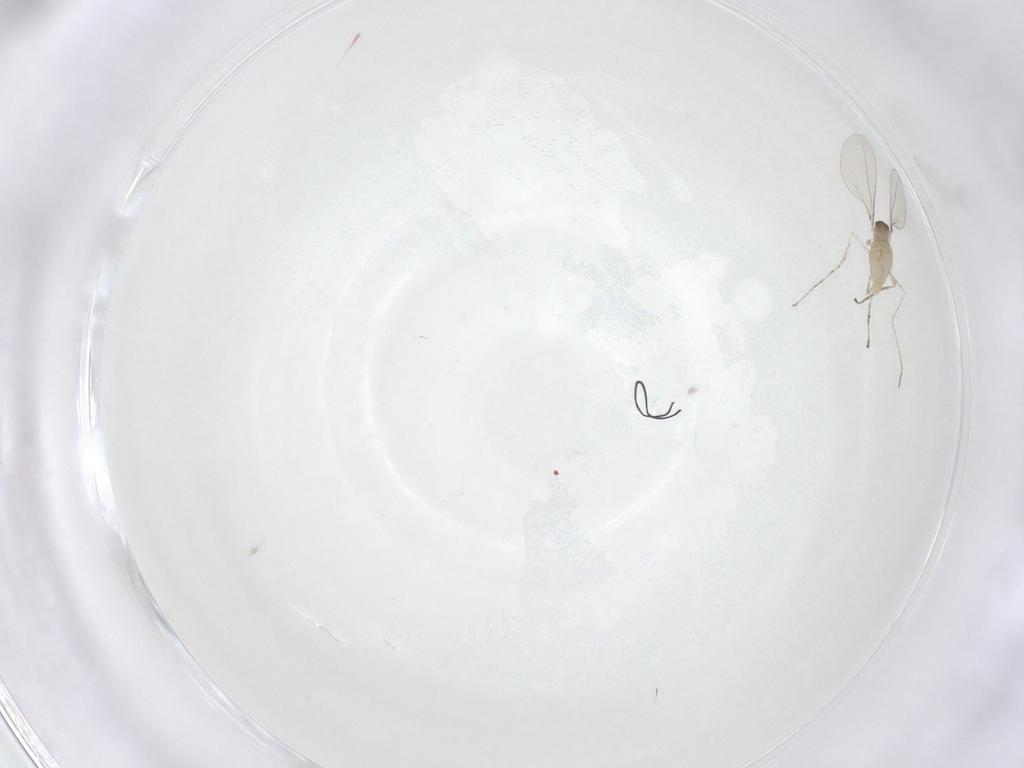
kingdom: Animalia
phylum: Arthropoda
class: Insecta
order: Diptera
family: Cecidomyiidae
